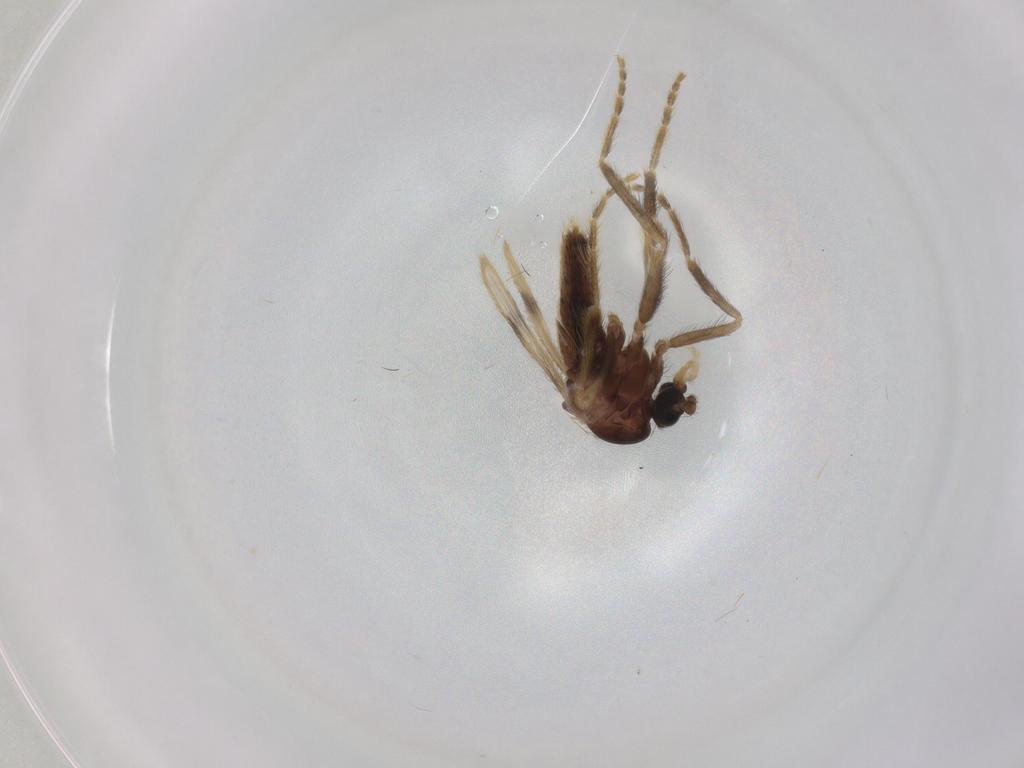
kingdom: Animalia
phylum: Arthropoda
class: Insecta
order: Diptera
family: Corethrellidae
